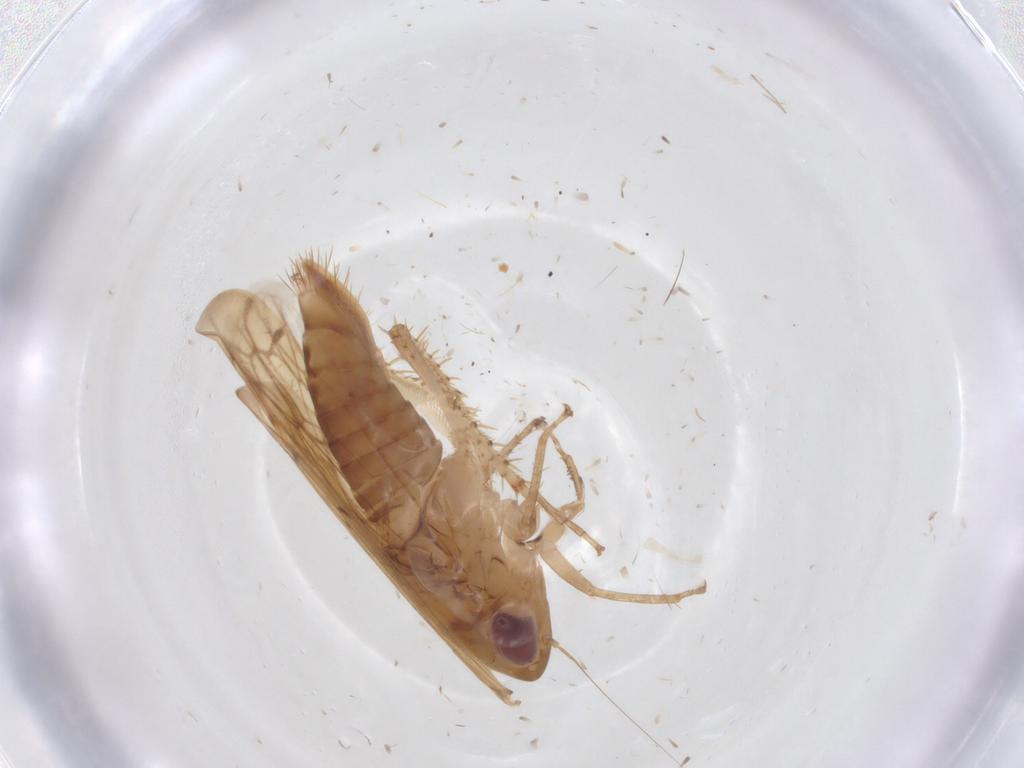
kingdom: Animalia
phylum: Arthropoda
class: Insecta
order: Hemiptera
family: Cicadellidae
